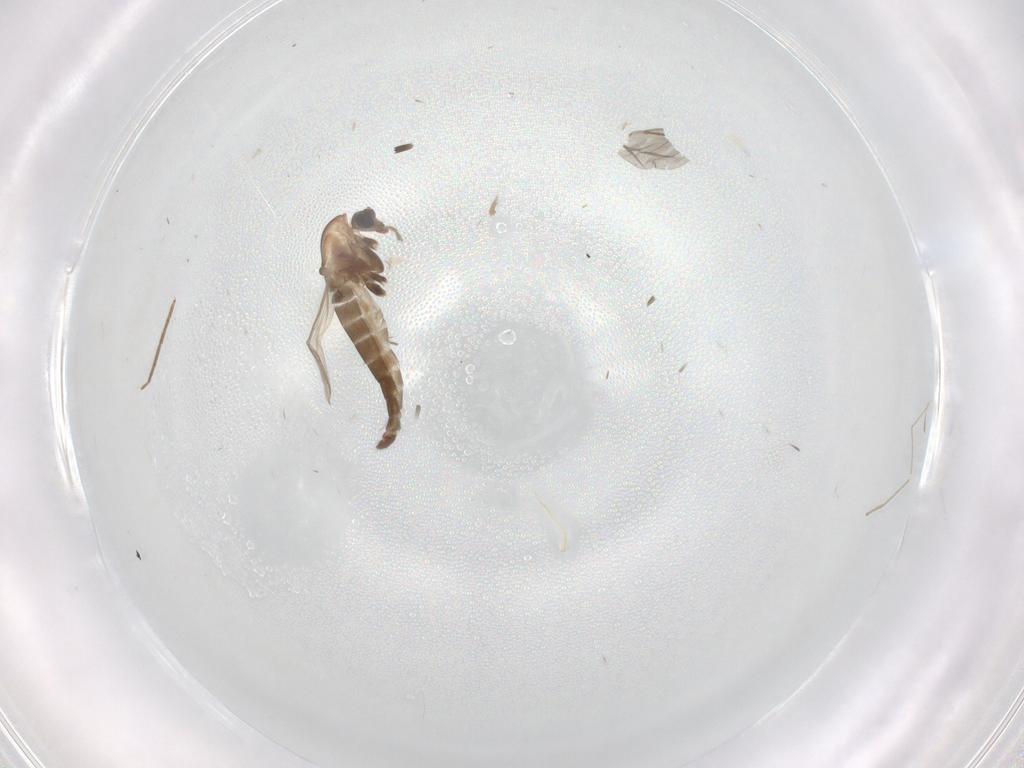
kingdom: Animalia
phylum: Arthropoda
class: Insecta
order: Diptera
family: Chironomidae
